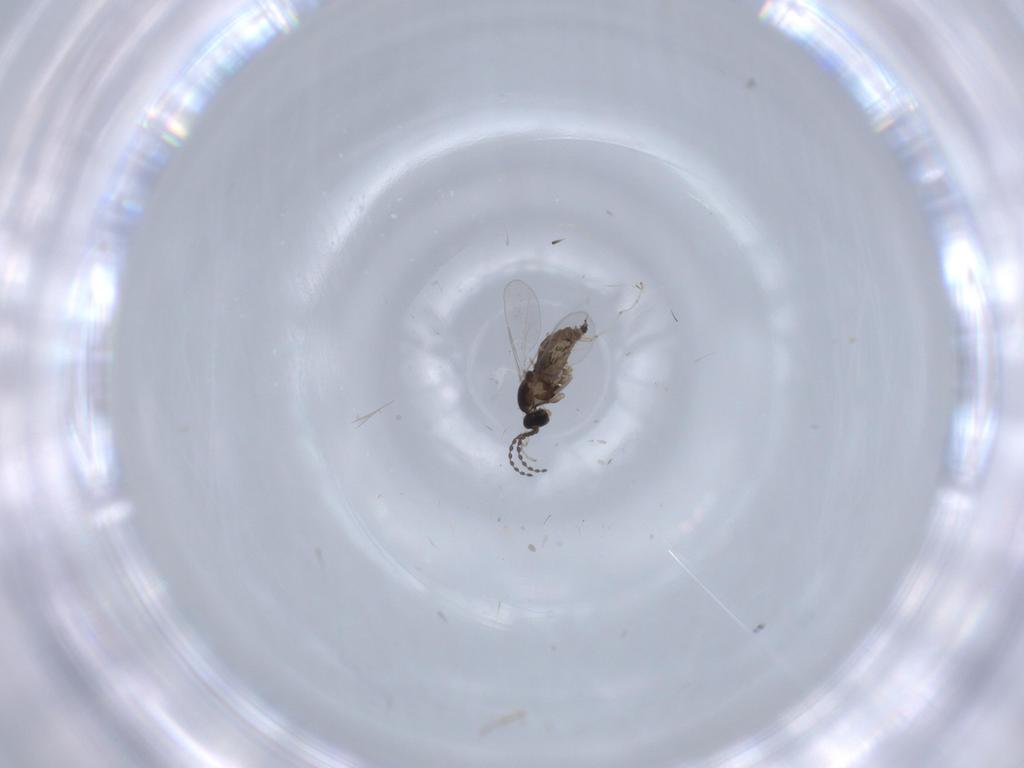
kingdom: Animalia
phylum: Arthropoda
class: Insecta
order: Diptera
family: Cecidomyiidae
